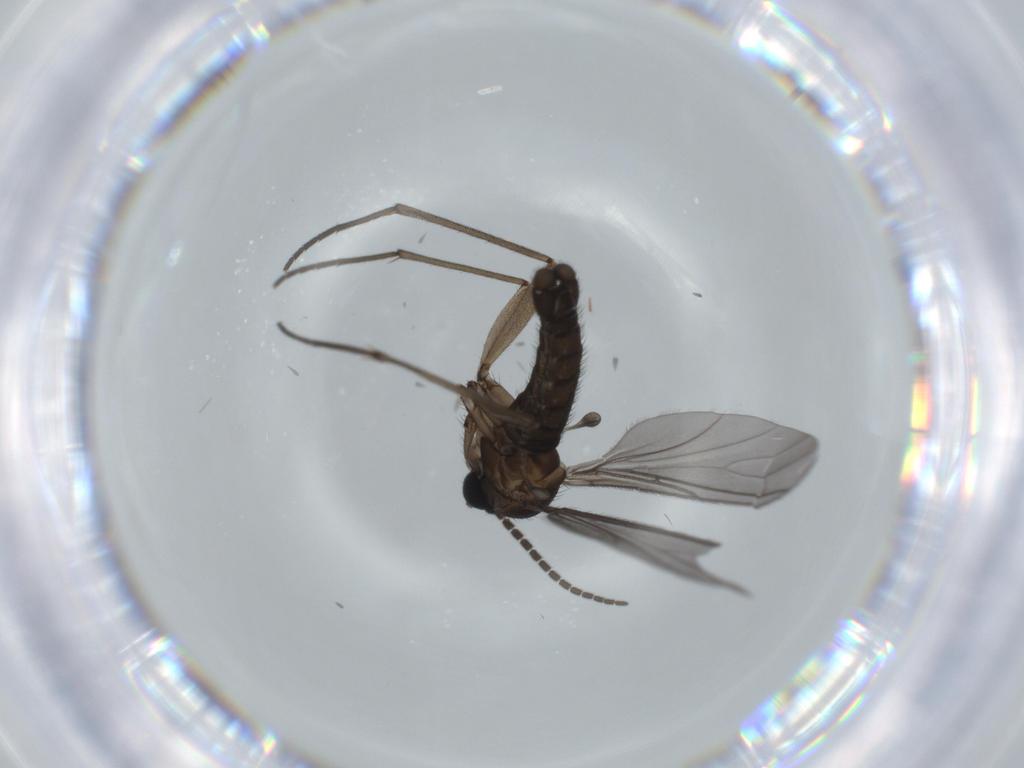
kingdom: Animalia
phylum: Arthropoda
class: Insecta
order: Diptera
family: Sciaridae
